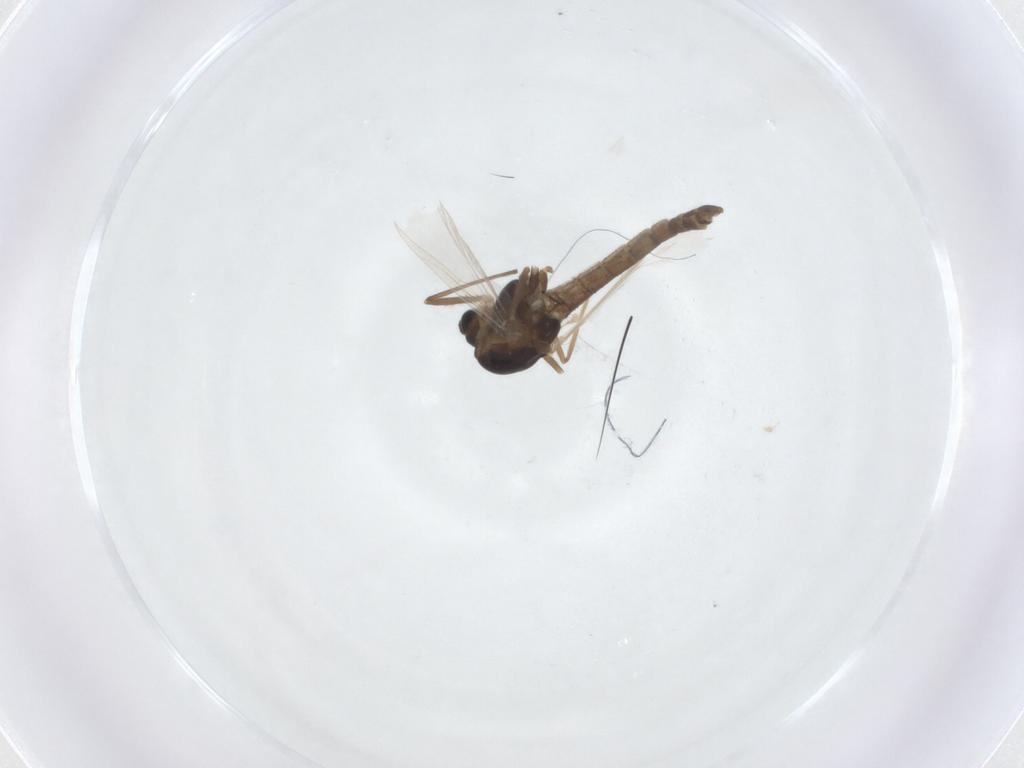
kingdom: Animalia
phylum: Arthropoda
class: Insecta
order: Diptera
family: Chironomidae
